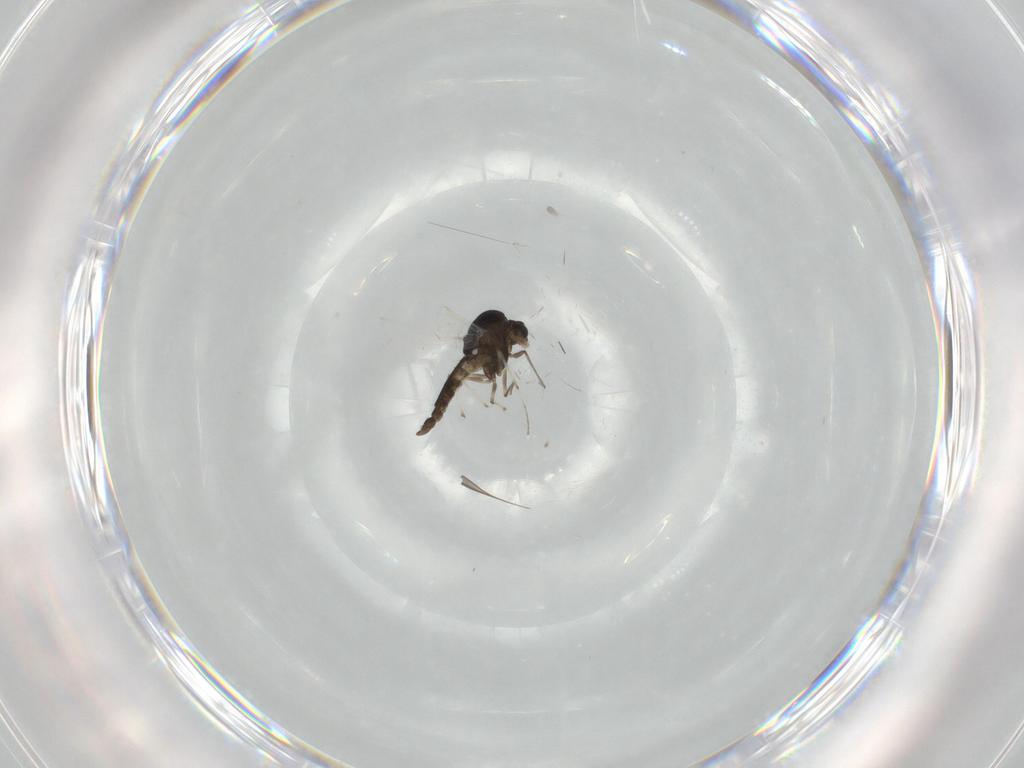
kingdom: Animalia
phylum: Arthropoda
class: Insecta
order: Diptera
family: Chironomidae
